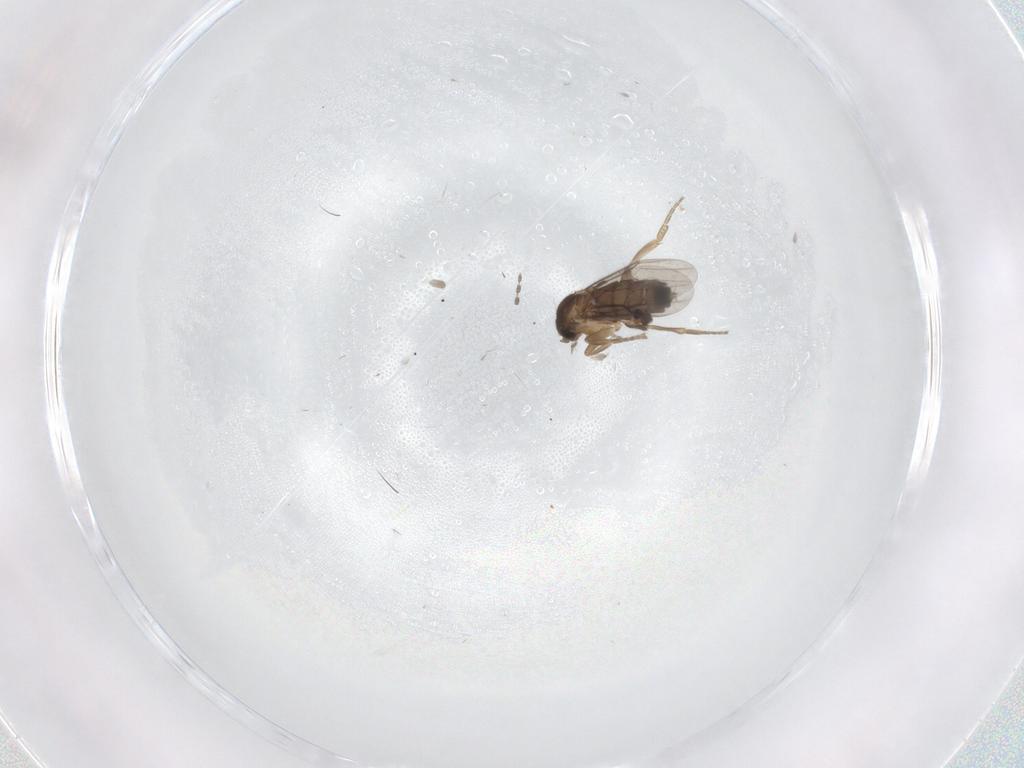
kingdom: Animalia
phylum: Arthropoda
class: Insecta
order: Diptera
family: Phoridae
